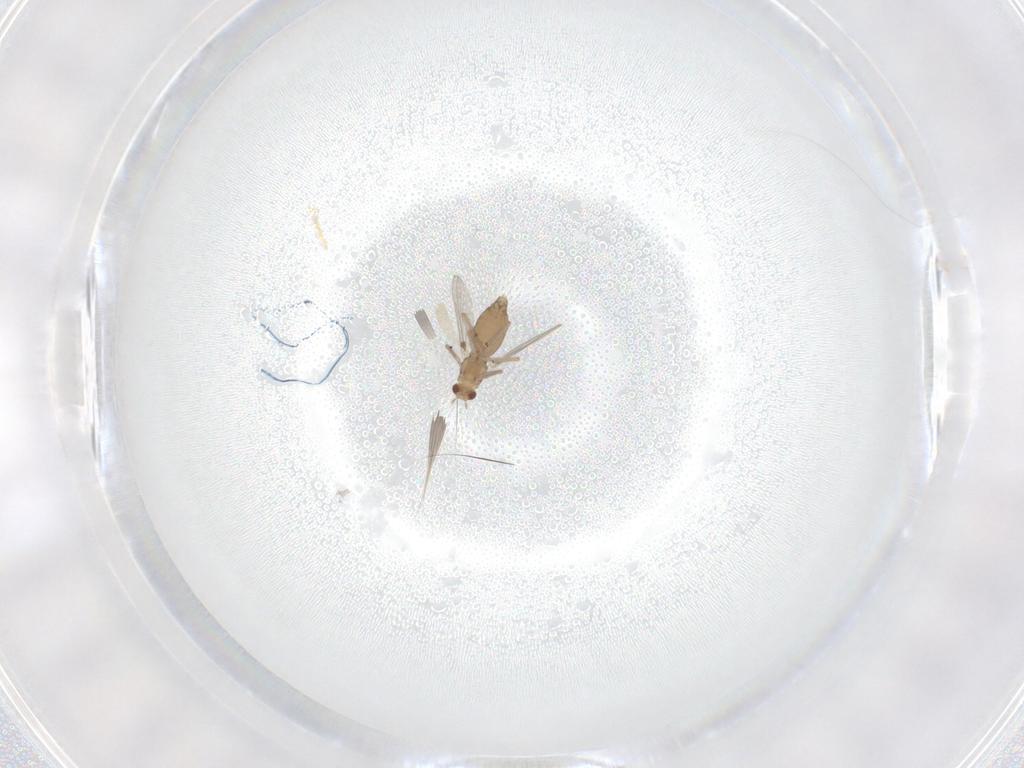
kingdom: Animalia
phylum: Arthropoda
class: Insecta
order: Diptera
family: Chironomidae
